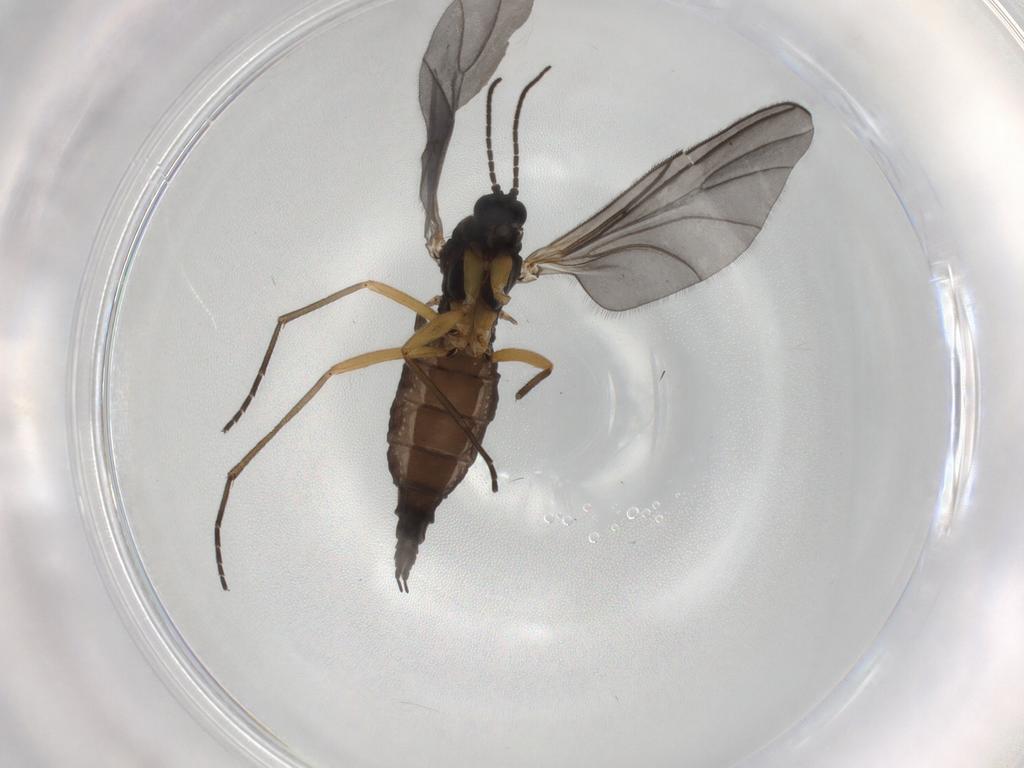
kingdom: Animalia
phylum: Arthropoda
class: Insecta
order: Diptera
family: Sciaridae
